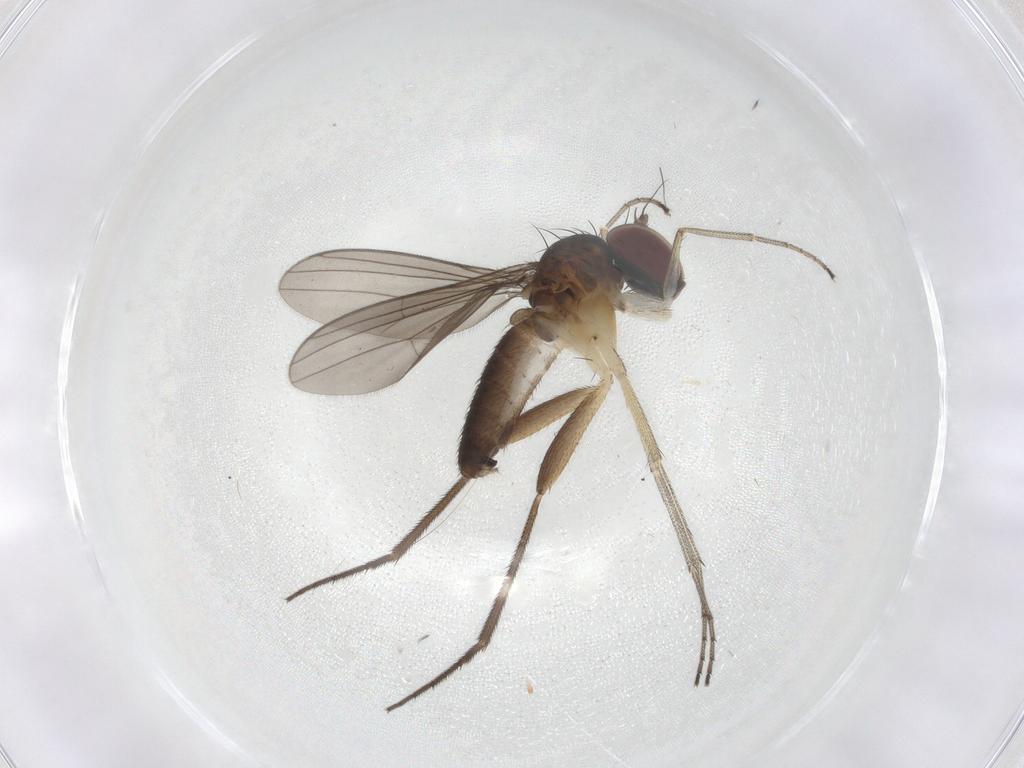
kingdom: Animalia
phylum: Arthropoda
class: Insecta
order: Diptera
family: Dolichopodidae
